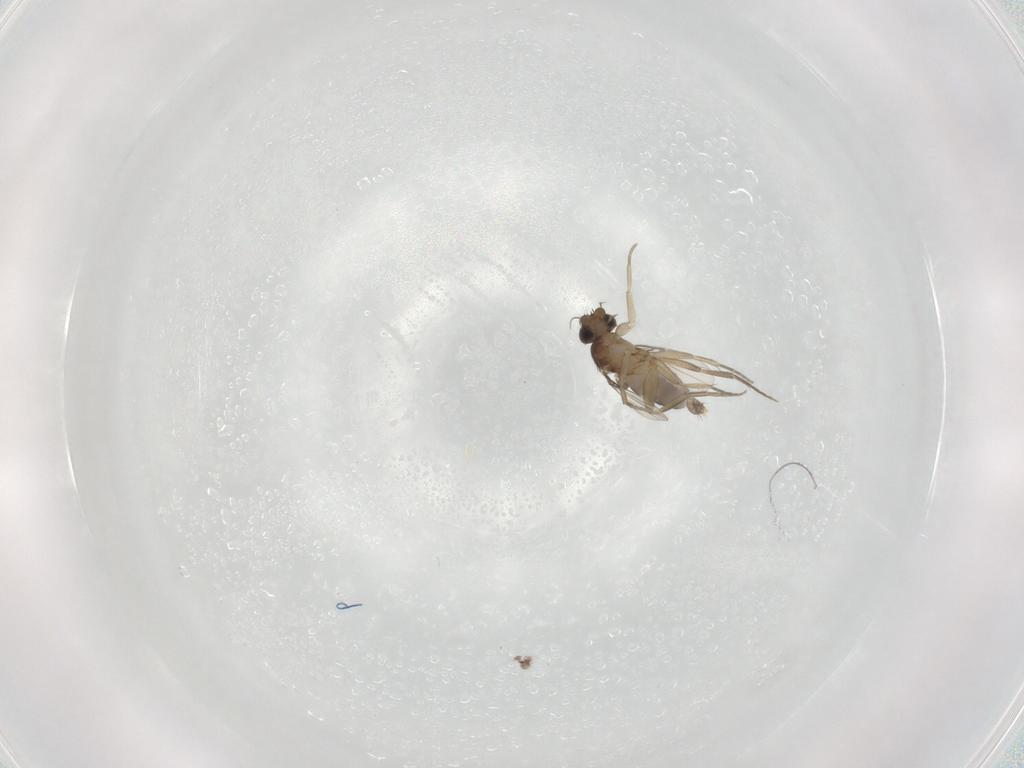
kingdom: Animalia
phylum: Arthropoda
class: Insecta
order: Diptera
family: Ceratopogonidae
